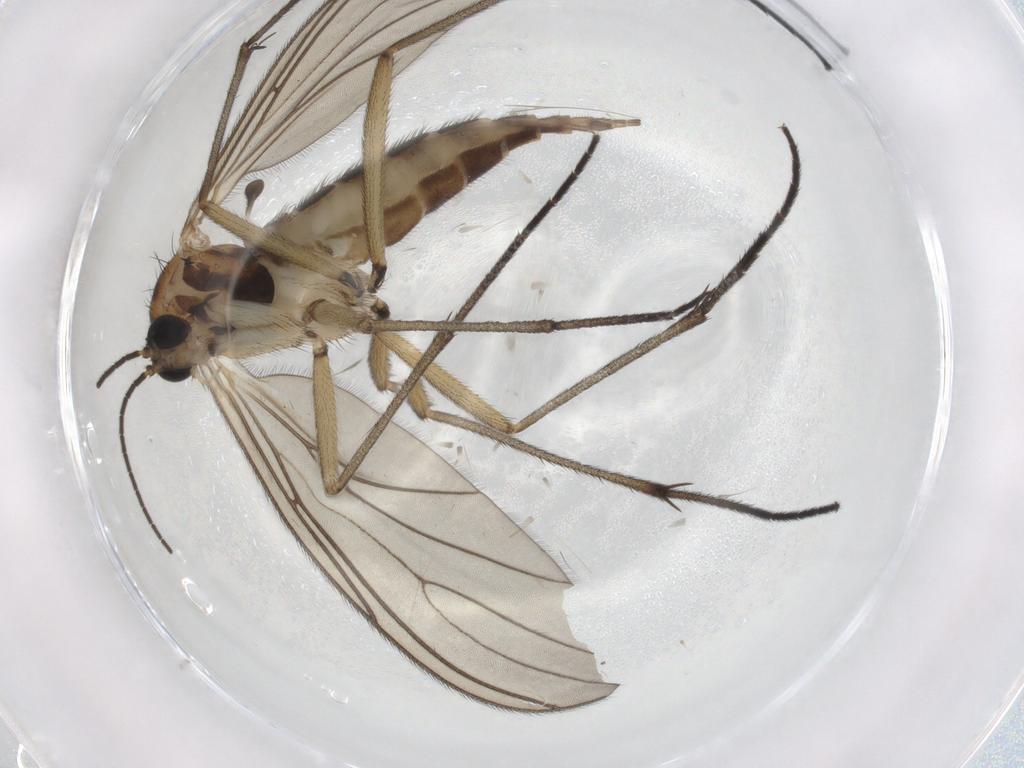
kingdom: Animalia
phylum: Arthropoda
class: Insecta
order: Diptera
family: Sciaridae
